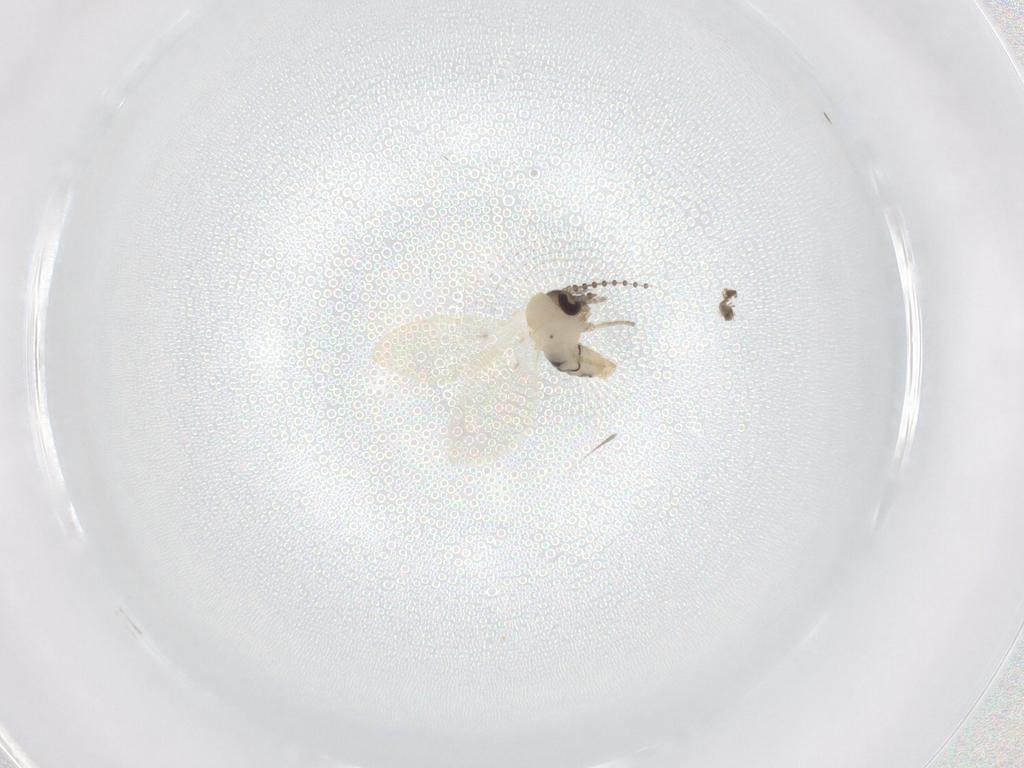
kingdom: Animalia
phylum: Arthropoda
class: Insecta
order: Diptera
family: Psychodidae
